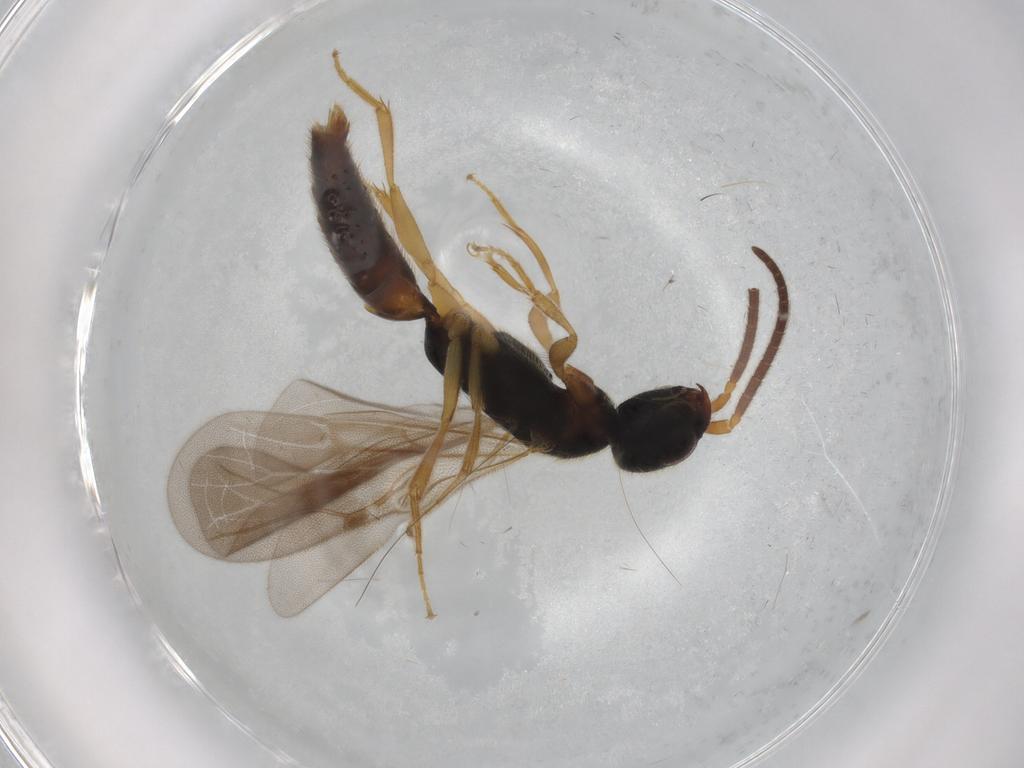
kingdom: Animalia
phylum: Arthropoda
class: Insecta
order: Hymenoptera
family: Bethylidae
